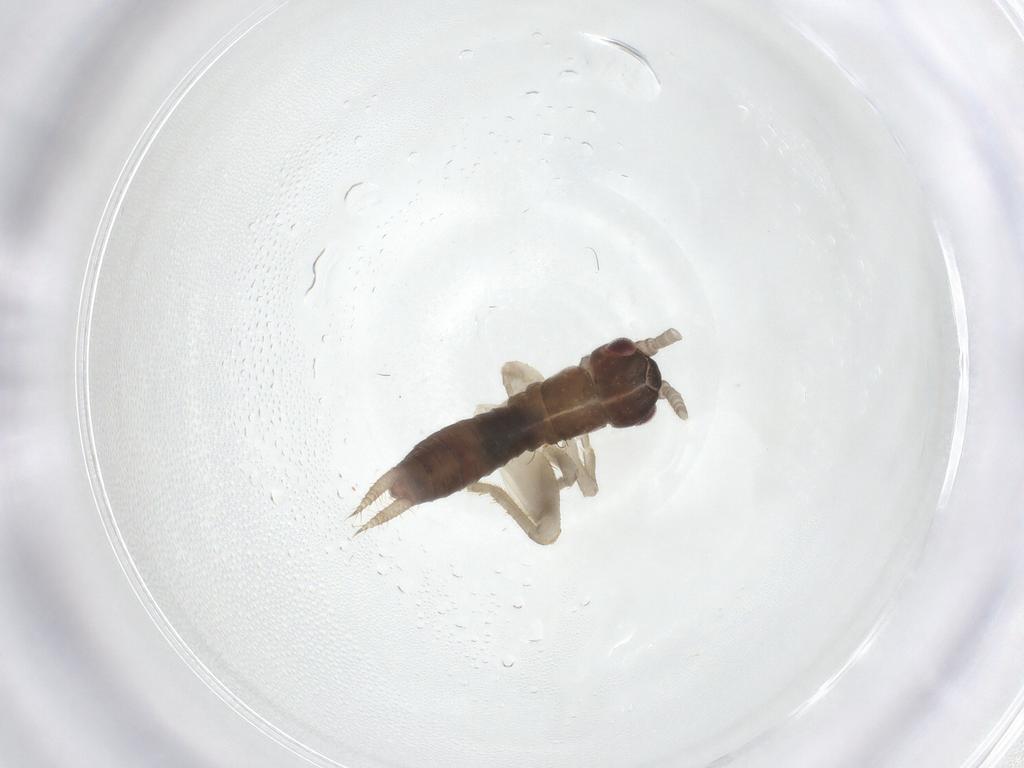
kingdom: Animalia
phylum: Arthropoda
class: Insecta
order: Orthoptera
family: Gryllidae
